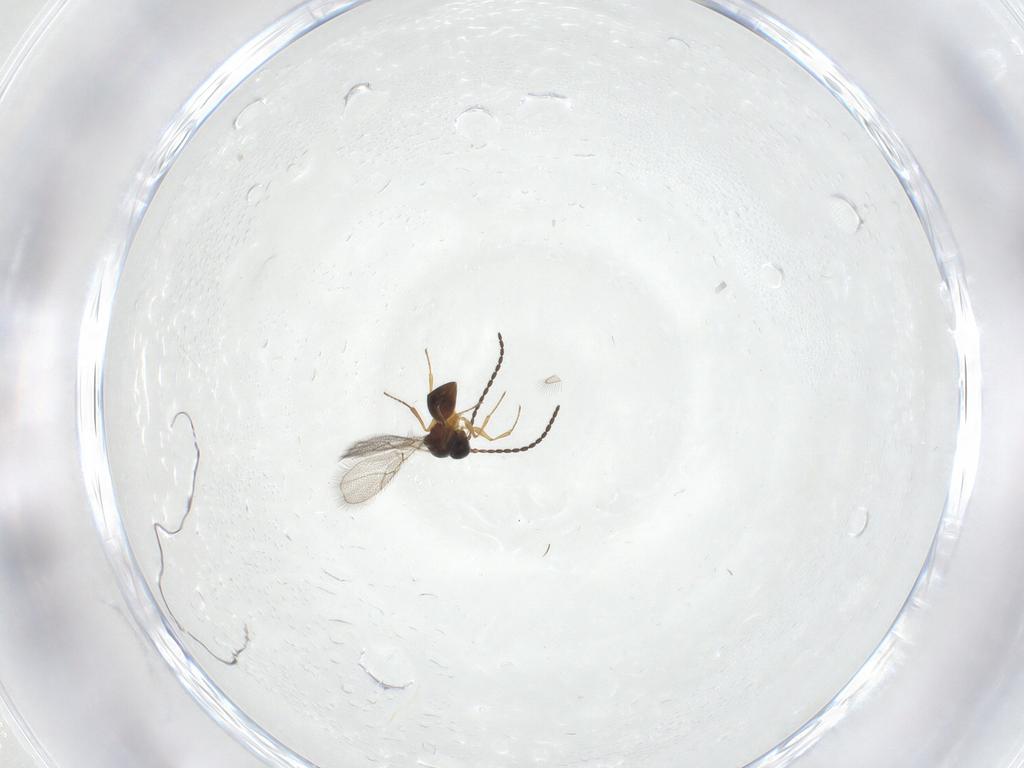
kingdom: Animalia
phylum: Arthropoda
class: Insecta
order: Hymenoptera
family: Figitidae
